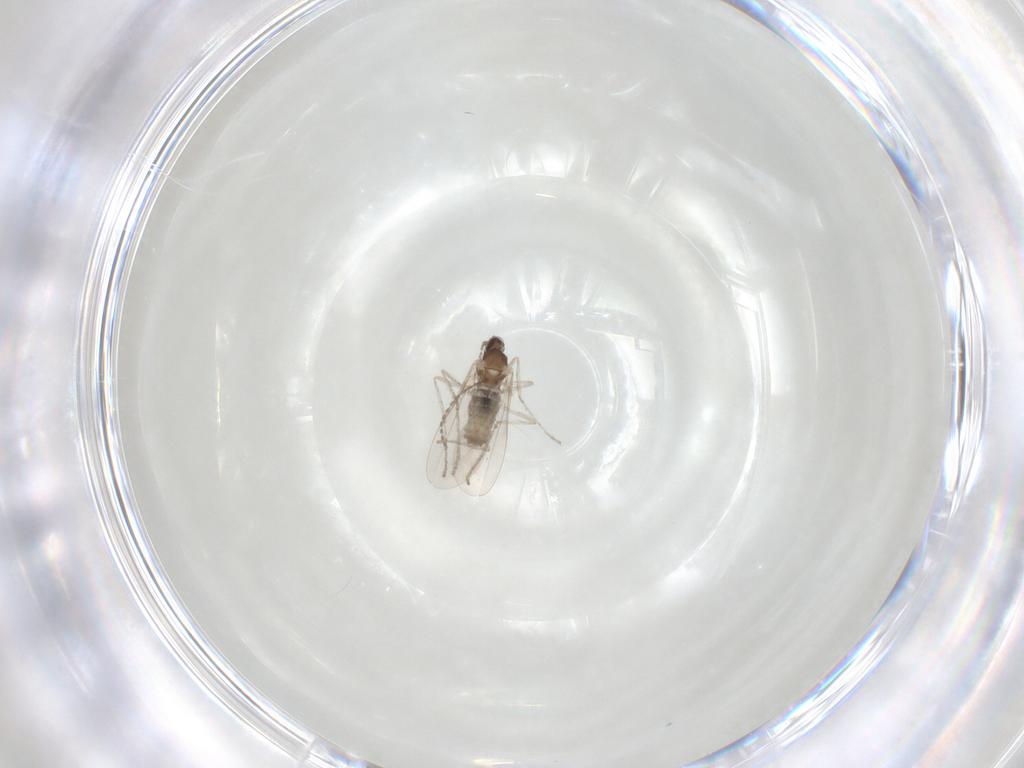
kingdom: Animalia
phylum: Arthropoda
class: Insecta
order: Diptera
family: Cecidomyiidae
